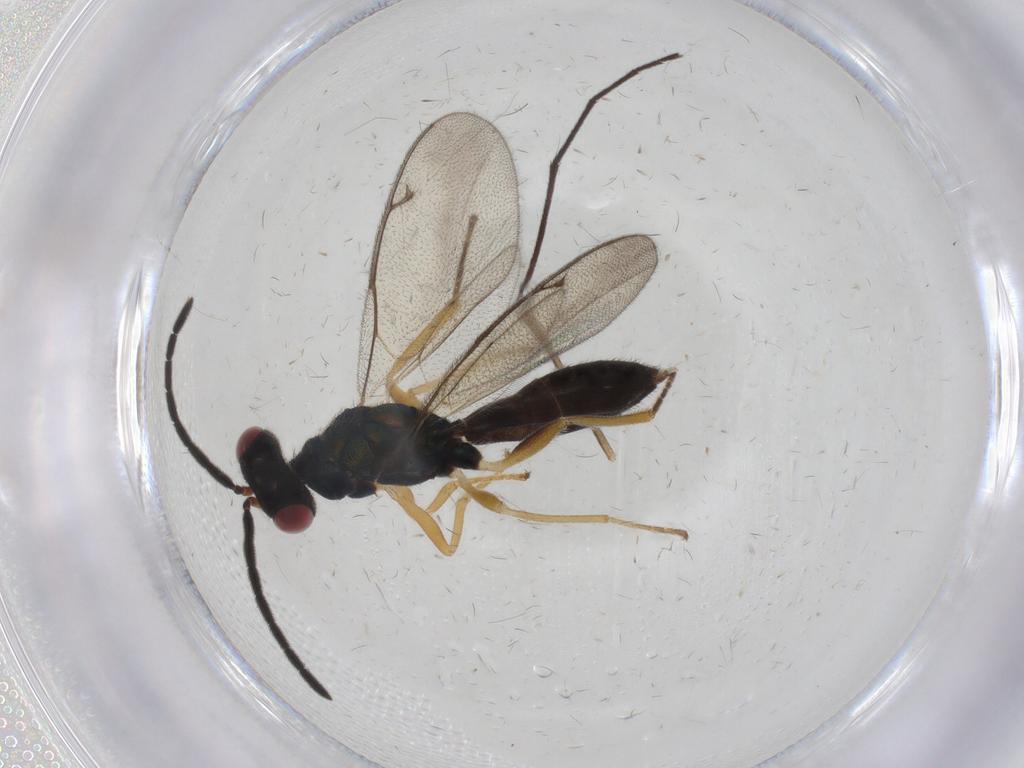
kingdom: Animalia
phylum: Arthropoda
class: Insecta
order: Hymenoptera
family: Pteromalidae
